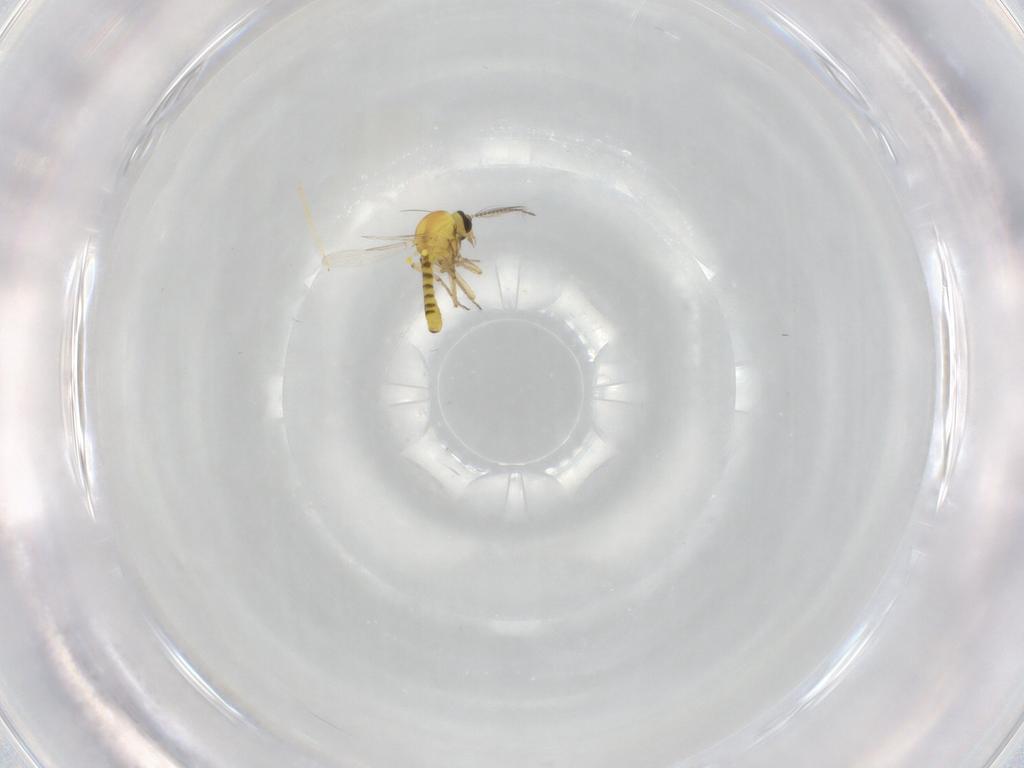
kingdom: Animalia
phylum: Arthropoda
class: Insecta
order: Diptera
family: Ceratopogonidae
